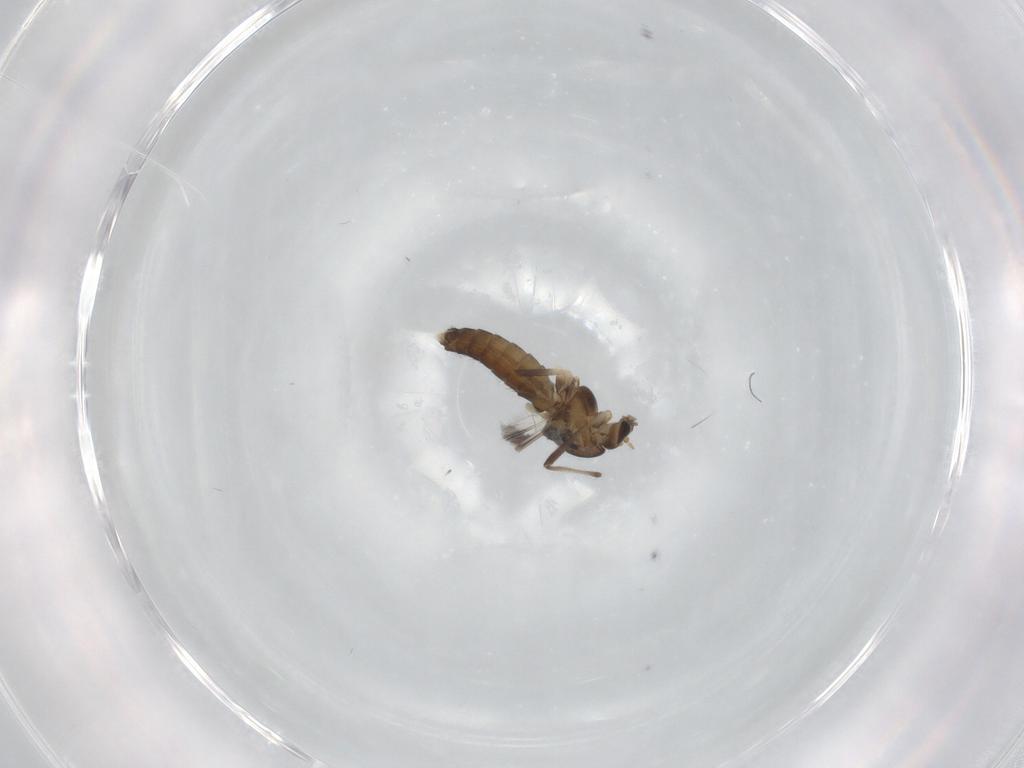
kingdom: Animalia
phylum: Arthropoda
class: Insecta
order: Diptera
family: Chironomidae
